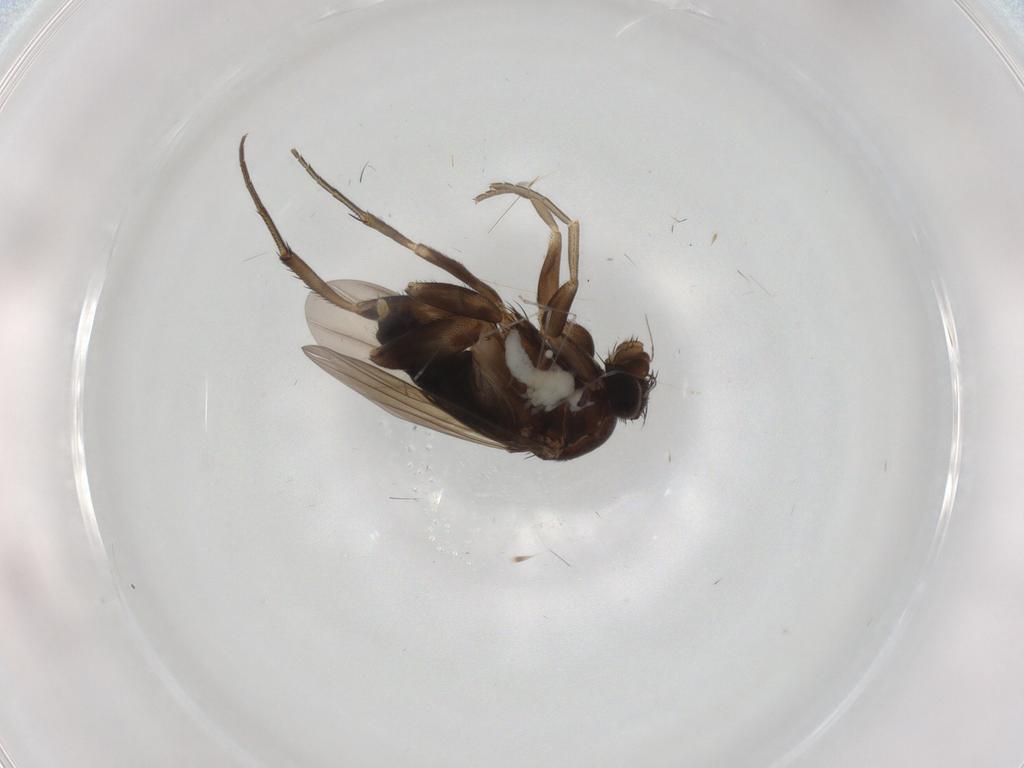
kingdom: Animalia
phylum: Arthropoda
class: Insecta
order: Diptera
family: Cecidomyiidae
